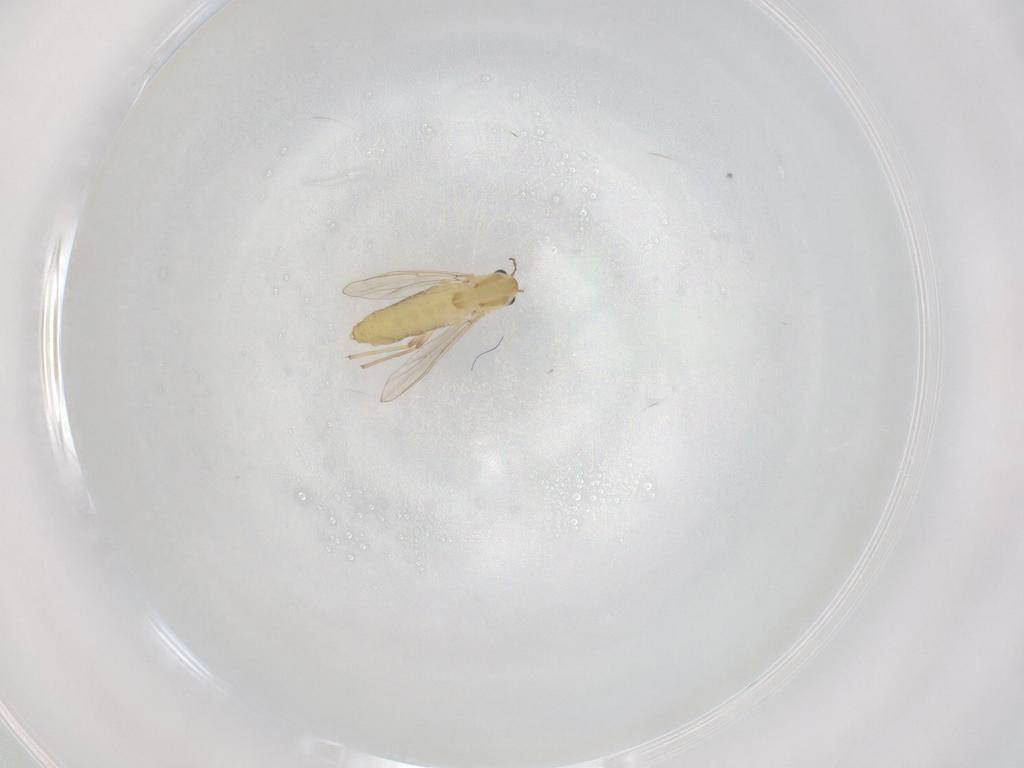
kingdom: Animalia
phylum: Arthropoda
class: Insecta
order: Diptera
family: Chironomidae
